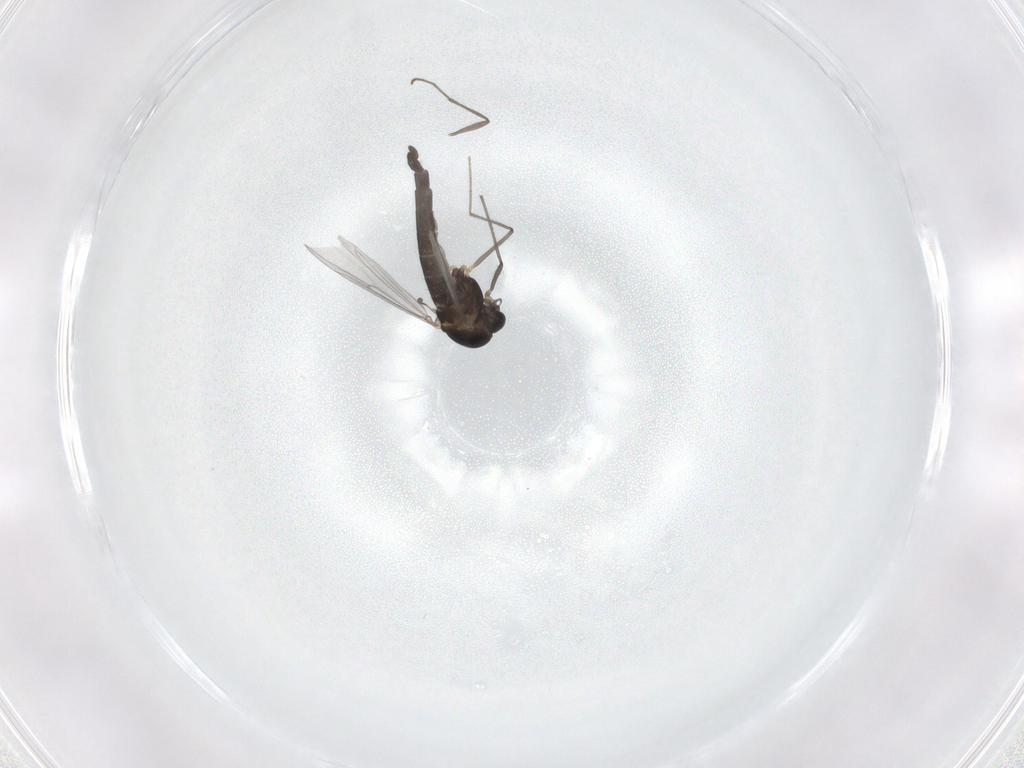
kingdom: Animalia
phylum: Arthropoda
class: Insecta
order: Diptera
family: Chironomidae
